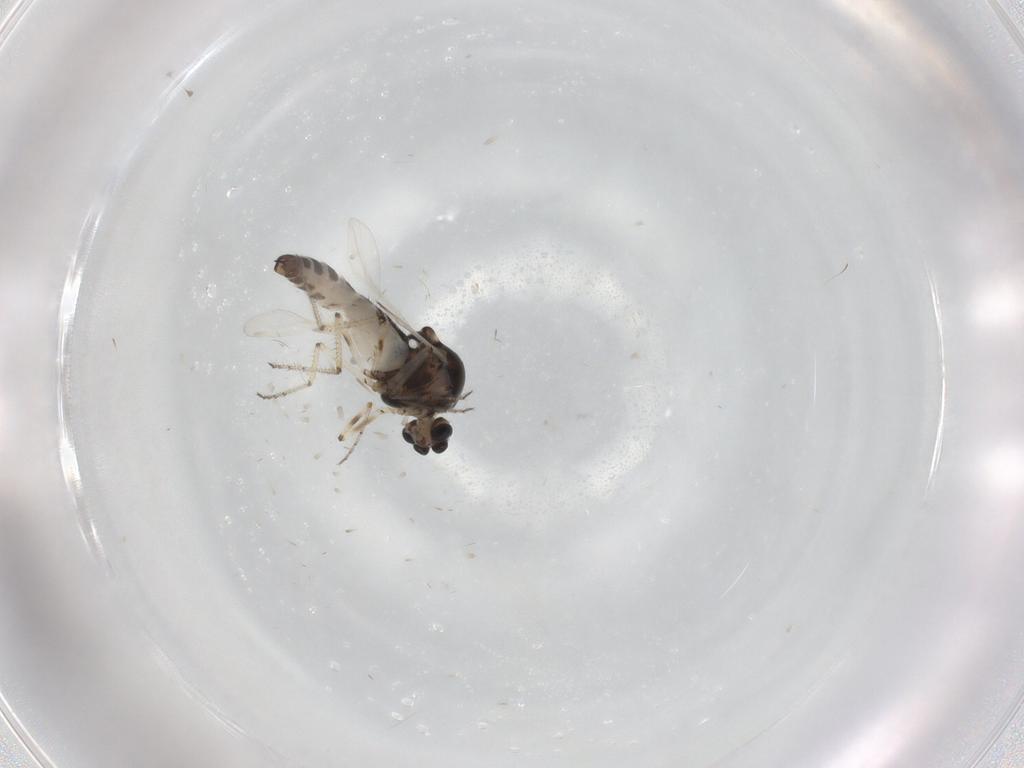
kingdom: Animalia
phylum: Arthropoda
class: Insecta
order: Diptera
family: Ceratopogonidae
